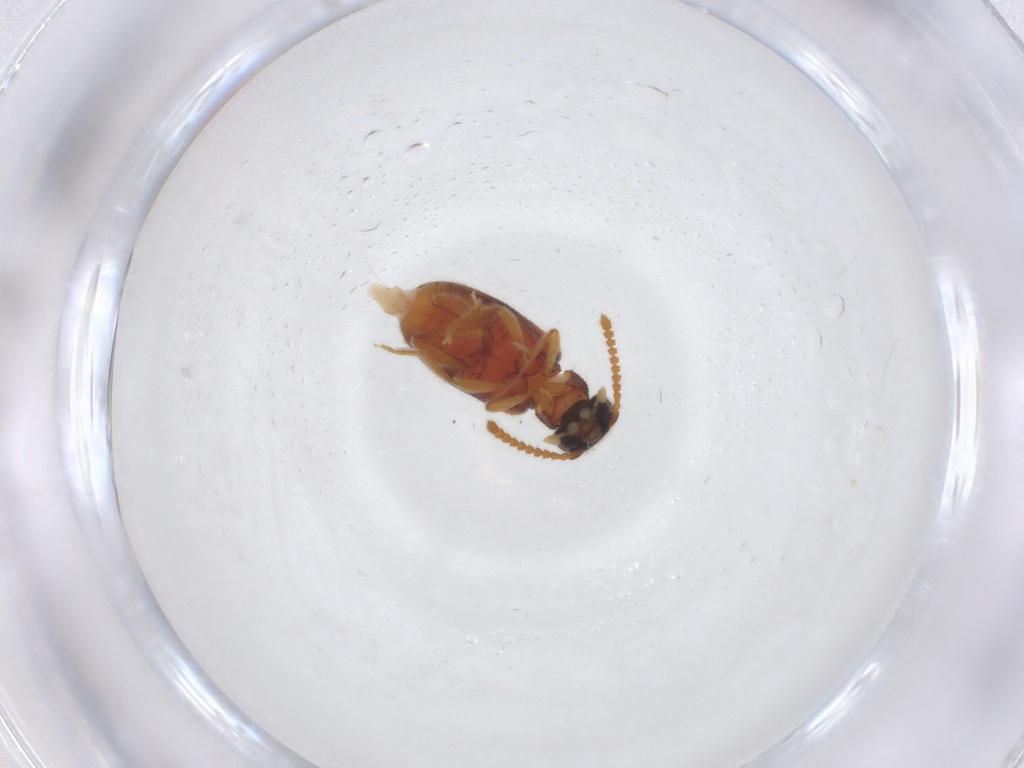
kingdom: Animalia
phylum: Arthropoda
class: Insecta
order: Coleoptera
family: Aderidae
